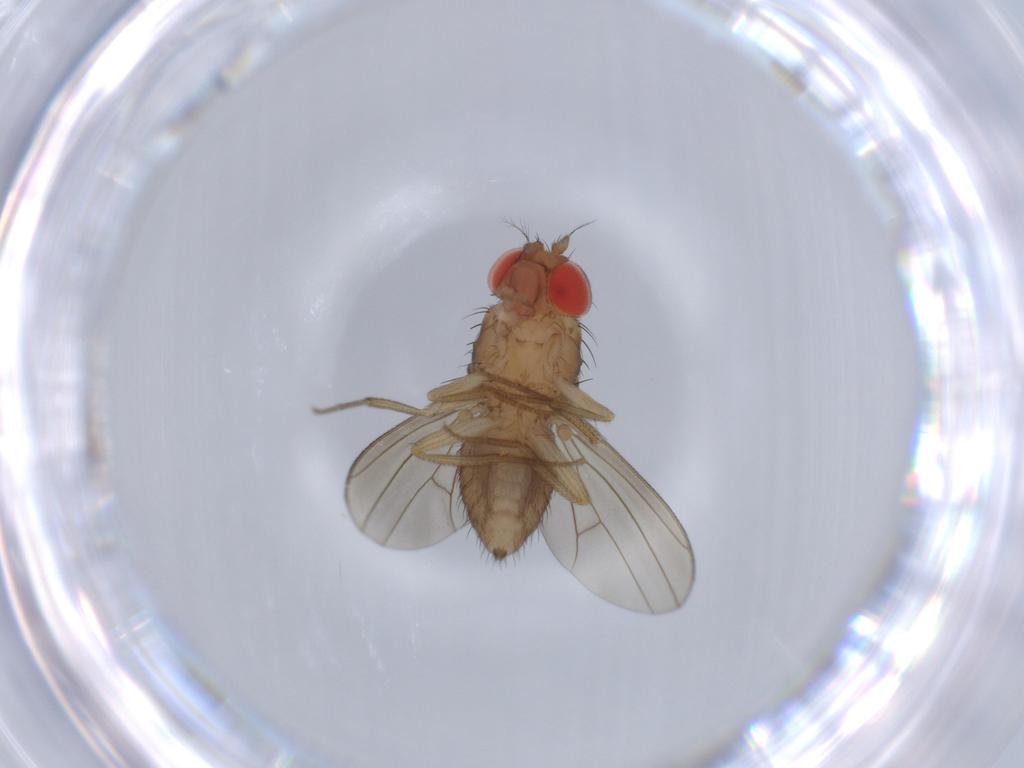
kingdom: Animalia
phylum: Arthropoda
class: Insecta
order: Diptera
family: Drosophilidae
